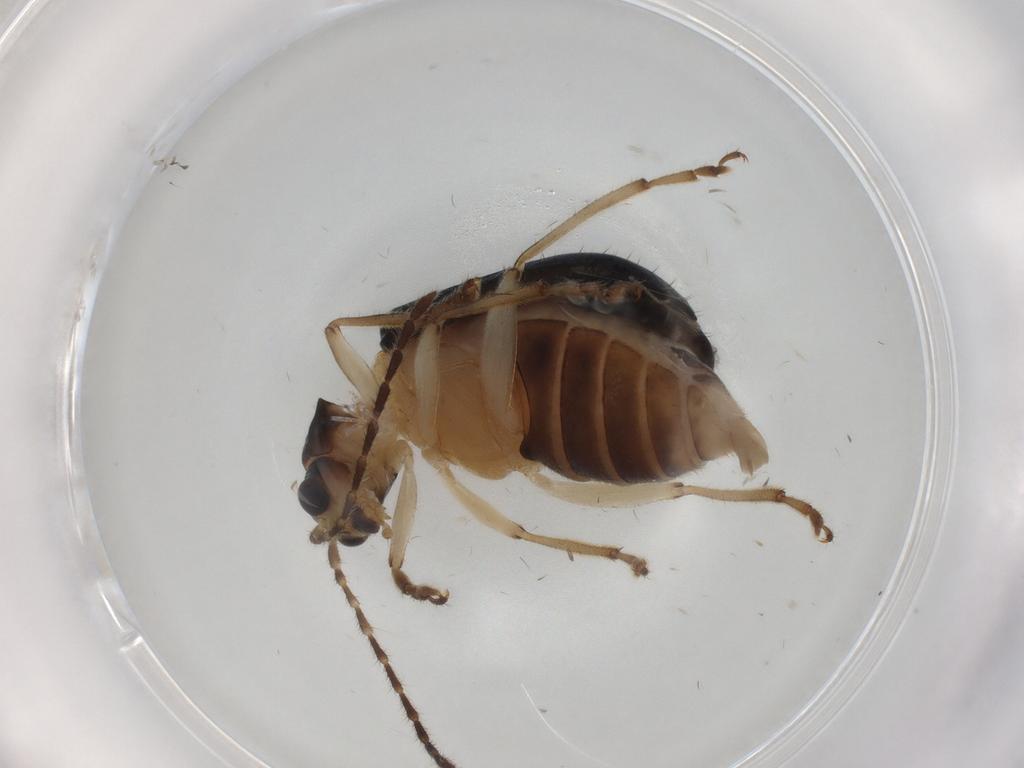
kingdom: Animalia
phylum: Arthropoda
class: Insecta
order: Coleoptera
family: Chrysomelidae
